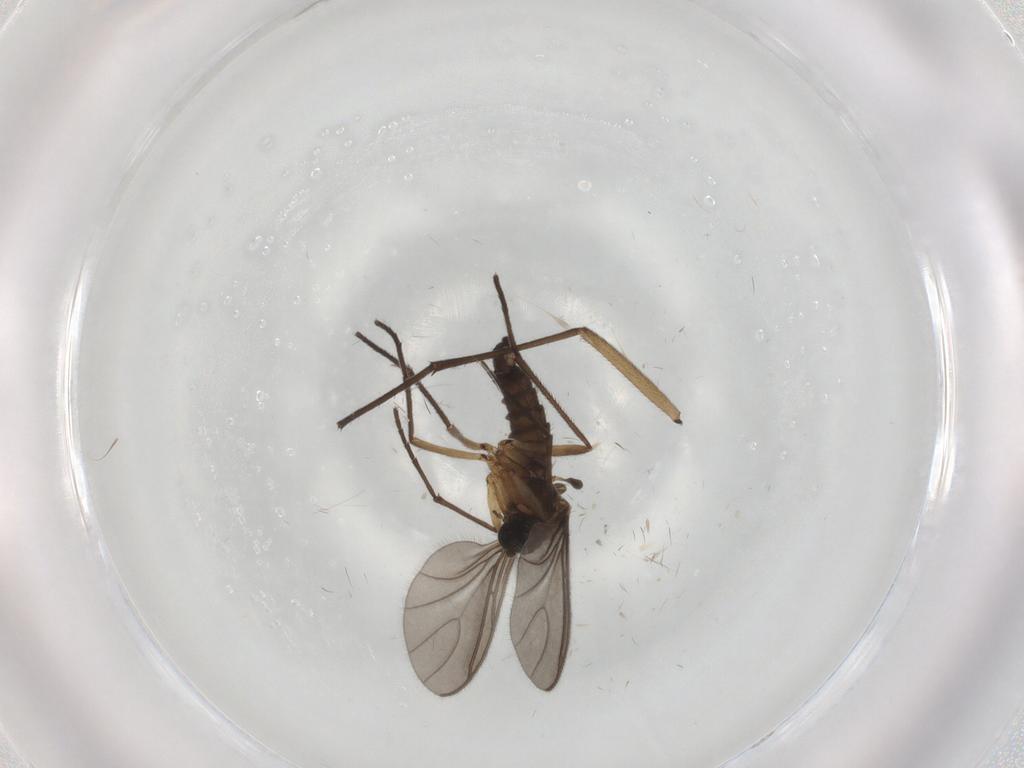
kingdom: Animalia
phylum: Arthropoda
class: Insecta
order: Diptera
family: Sciaridae
